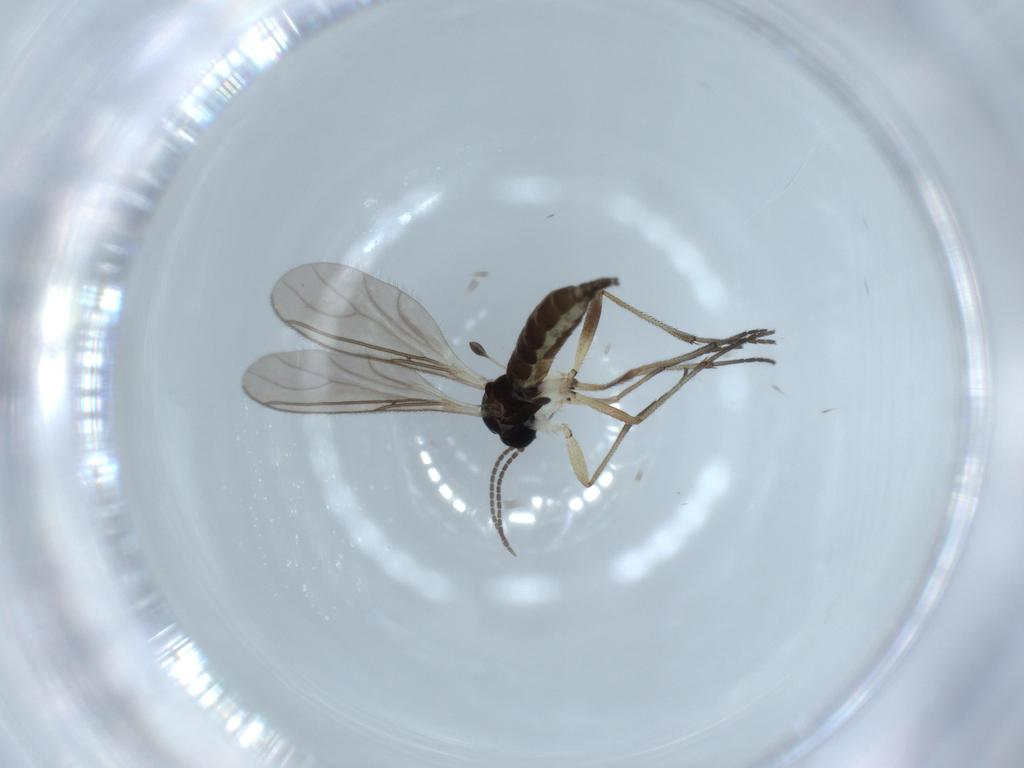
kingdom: Animalia
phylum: Arthropoda
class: Insecta
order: Diptera
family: Sciaridae
